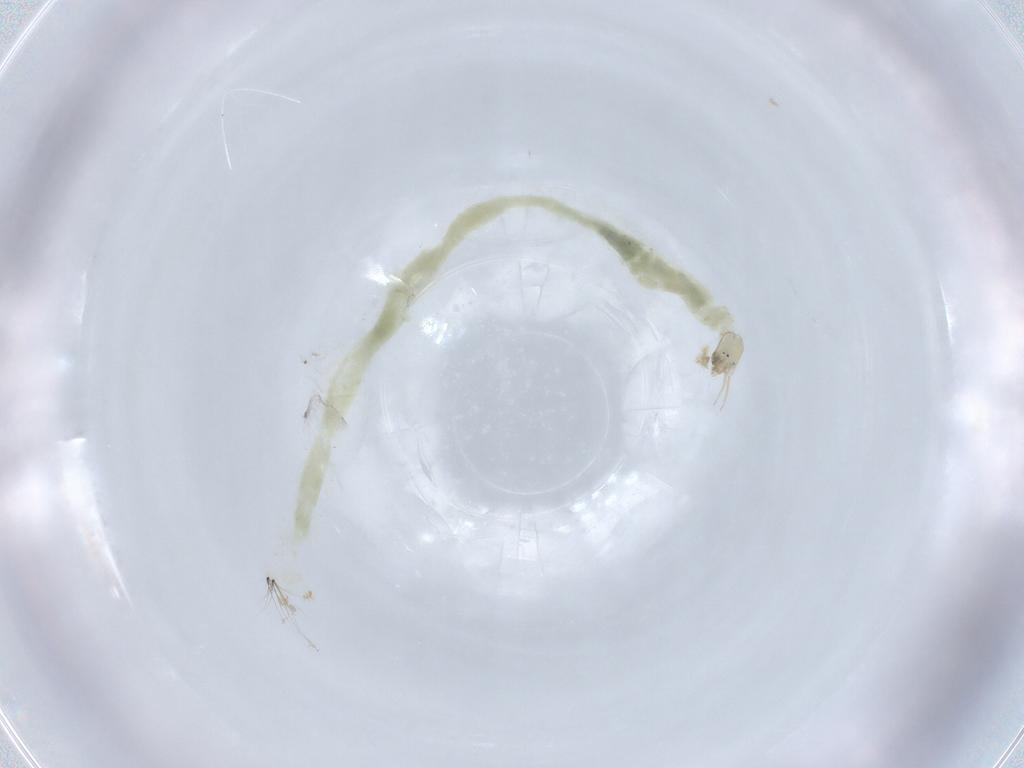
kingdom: Animalia
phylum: Arthropoda
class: Insecta
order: Diptera
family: Chironomidae
